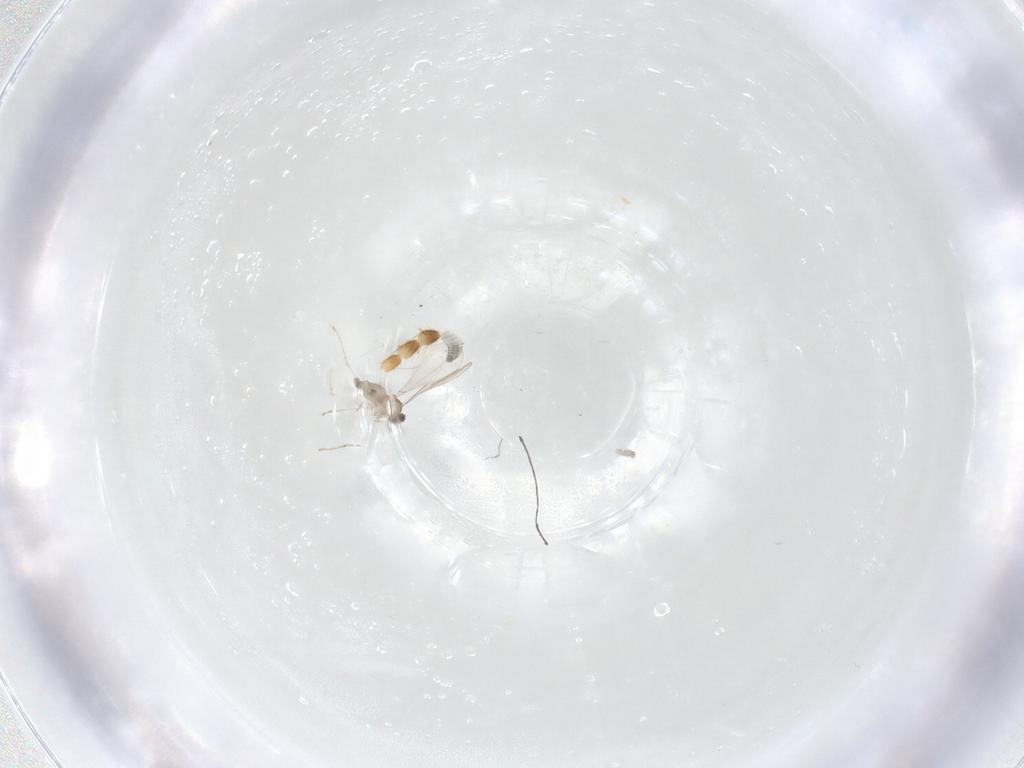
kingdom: Animalia
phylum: Arthropoda
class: Insecta
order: Diptera
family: Cecidomyiidae
